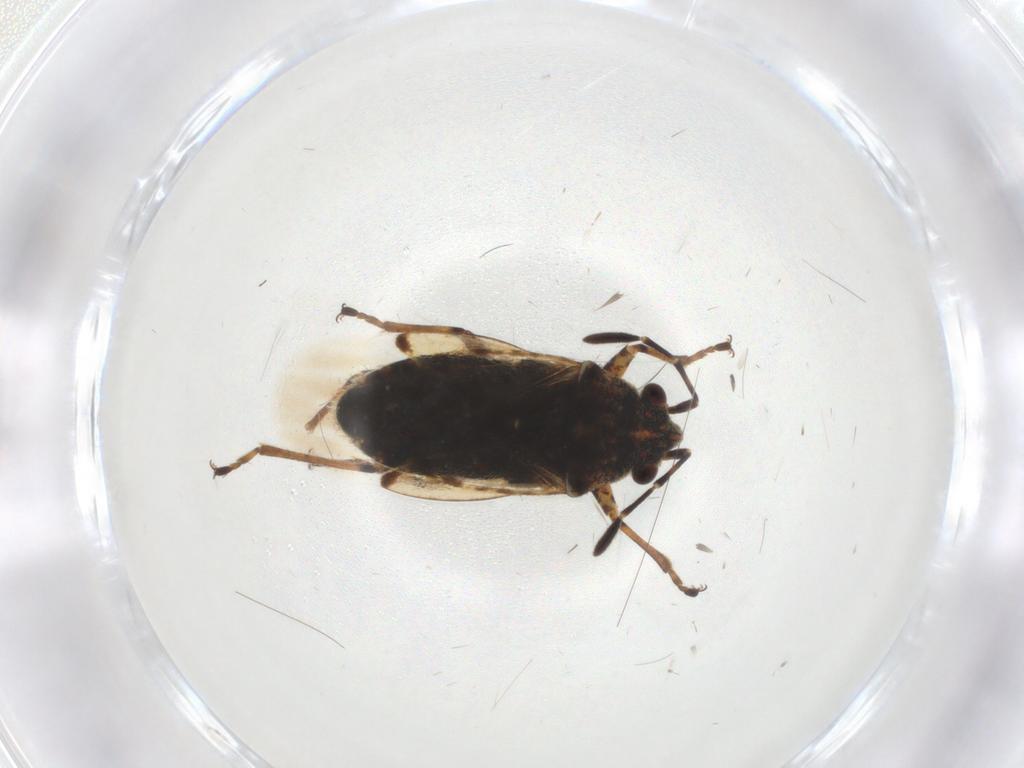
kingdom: Animalia
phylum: Arthropoda
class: Insecta
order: Hemiptera
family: Lygaeidae
